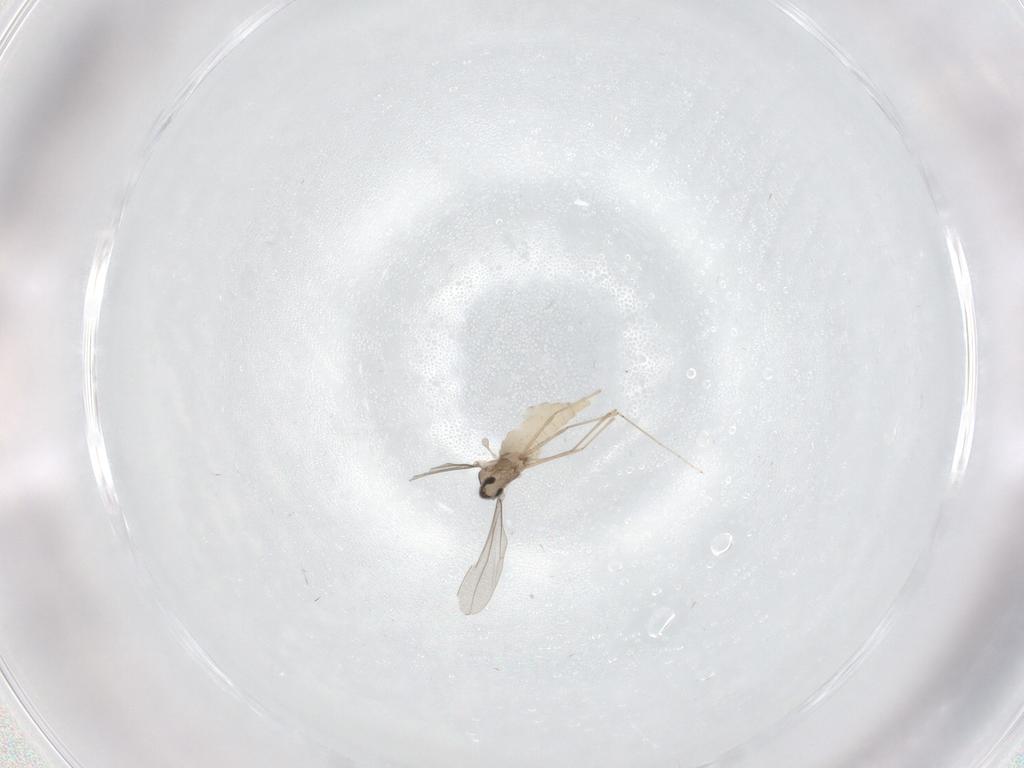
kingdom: Animalia
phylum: Arthropoda
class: Insecta
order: Diptera
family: Cecidomyiidae
